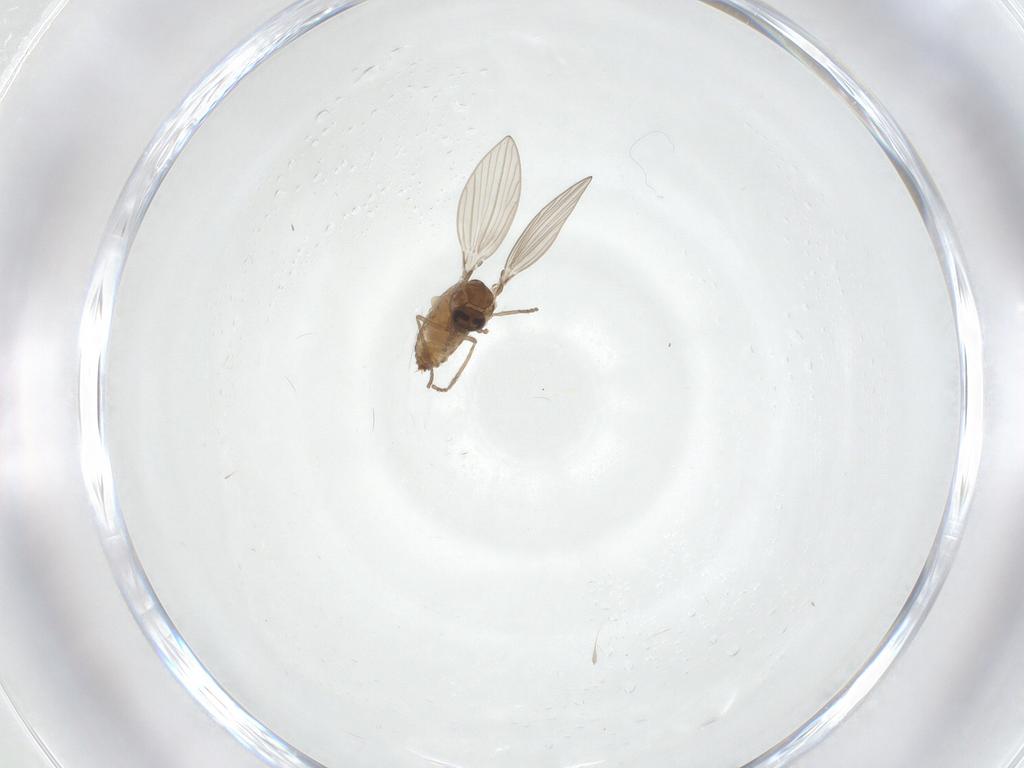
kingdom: Animalia
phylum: Arthropoda
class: Insecta
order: Diptera
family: Psychodidae
